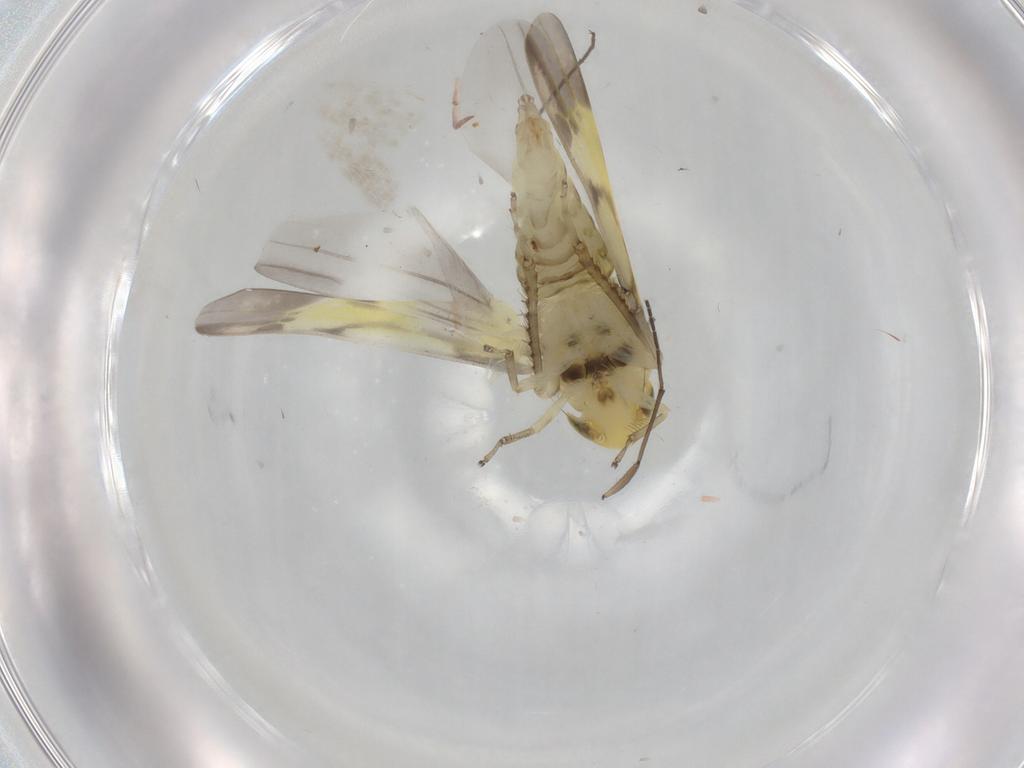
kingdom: Animalia
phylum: Arthropoda
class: Insecta
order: Hemiptera
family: Cicadellidae
